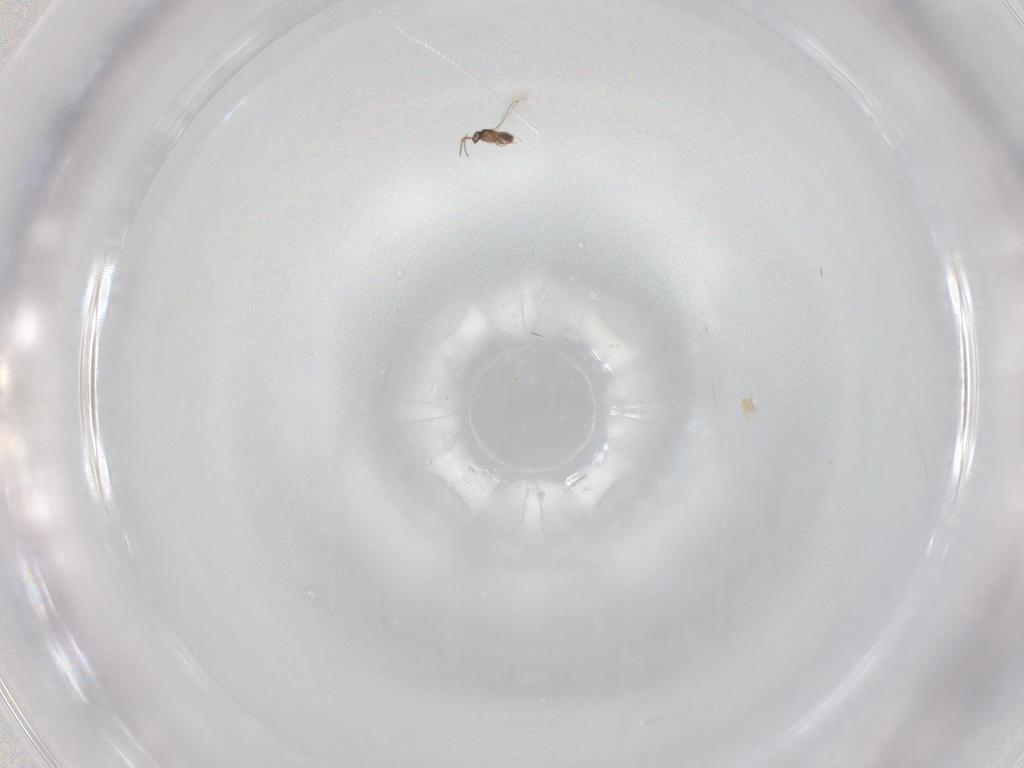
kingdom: Animalia
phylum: Arthropoda
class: Insecta
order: Hymenoptera
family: Mymaridae
